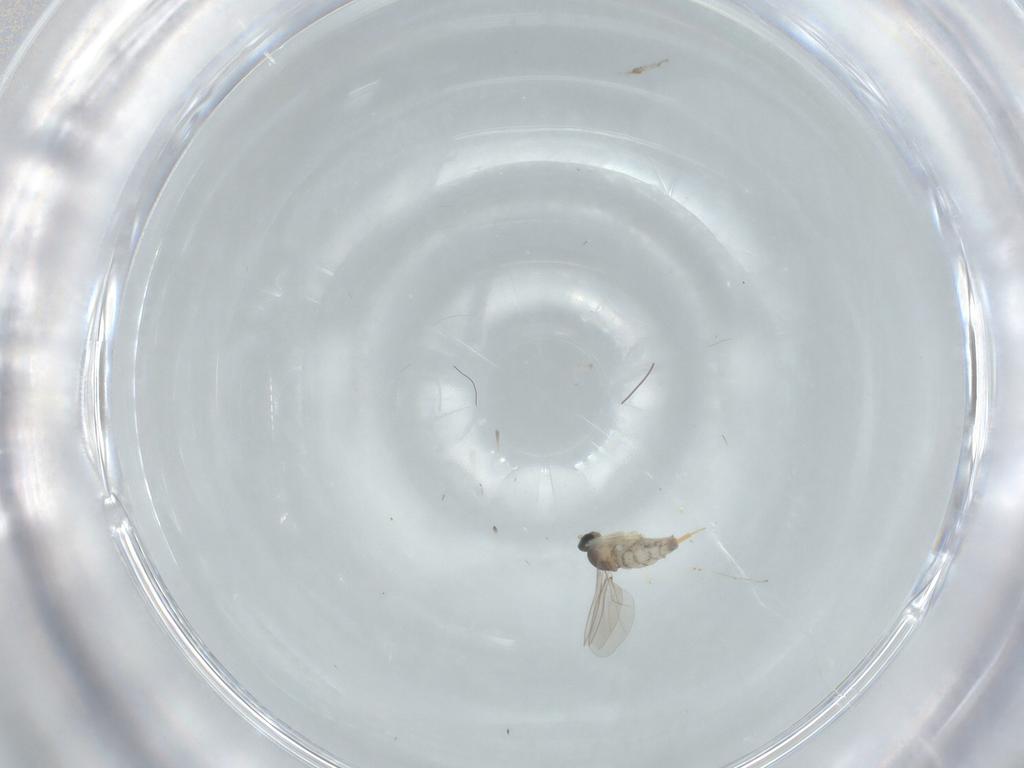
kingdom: Animalia
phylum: Arthropoda
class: Insecta
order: Diptera
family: Cecidomyiidae
